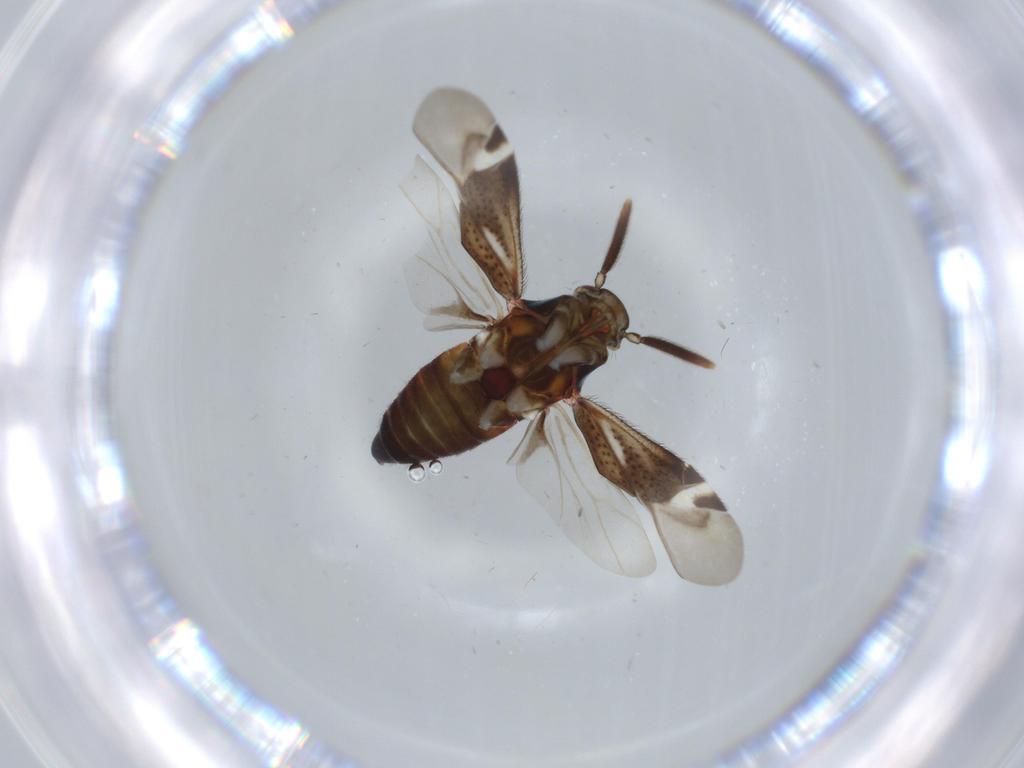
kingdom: Animalia
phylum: Arthropoda
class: Insecta
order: Hemiptera
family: Miridae
